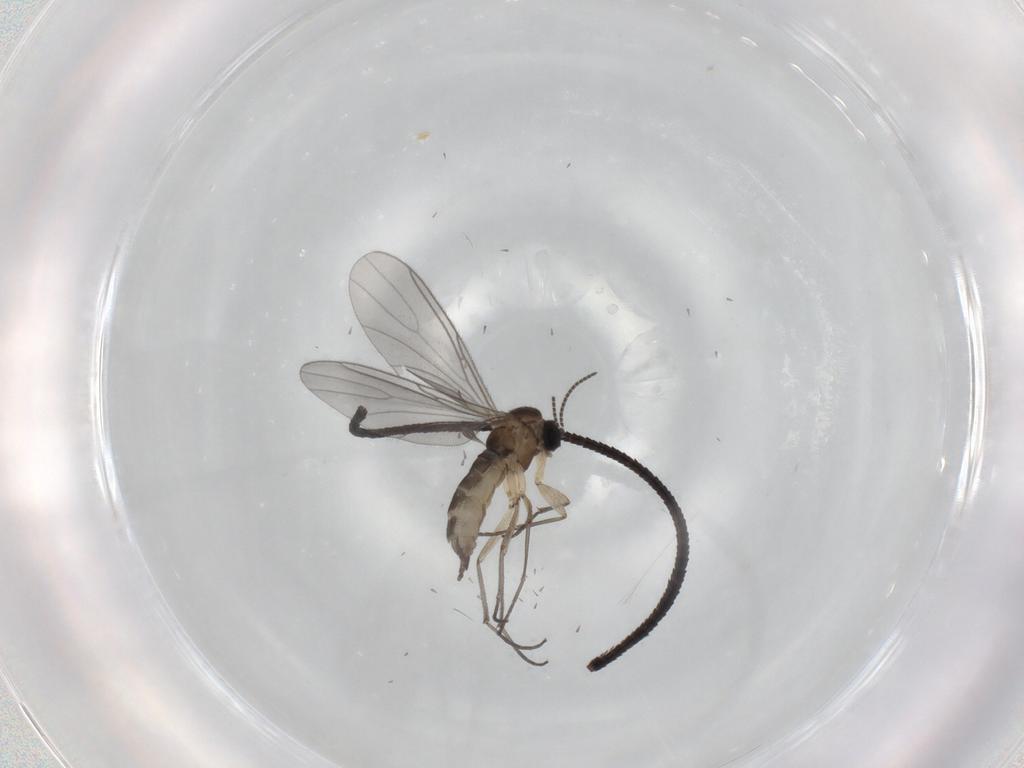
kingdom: Animalia
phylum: Arthropoda
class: Insecta
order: Diptera
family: Sciaridae
